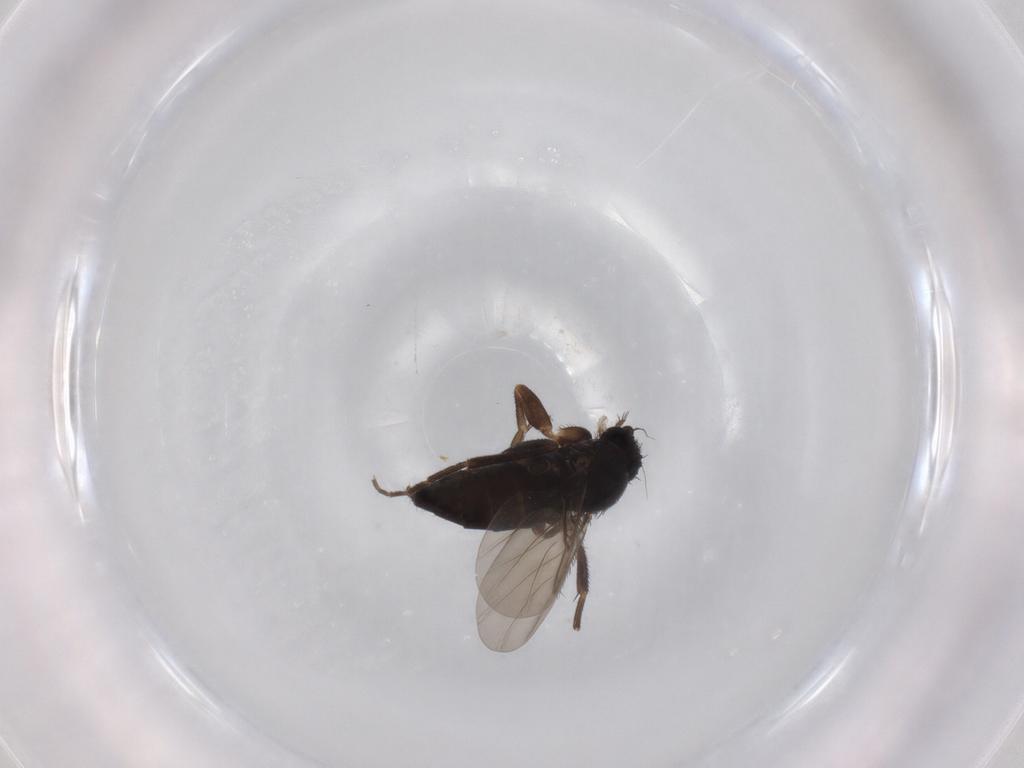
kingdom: Animalia
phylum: Arthropoda
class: Insecta
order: Diptera
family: Phoridae
